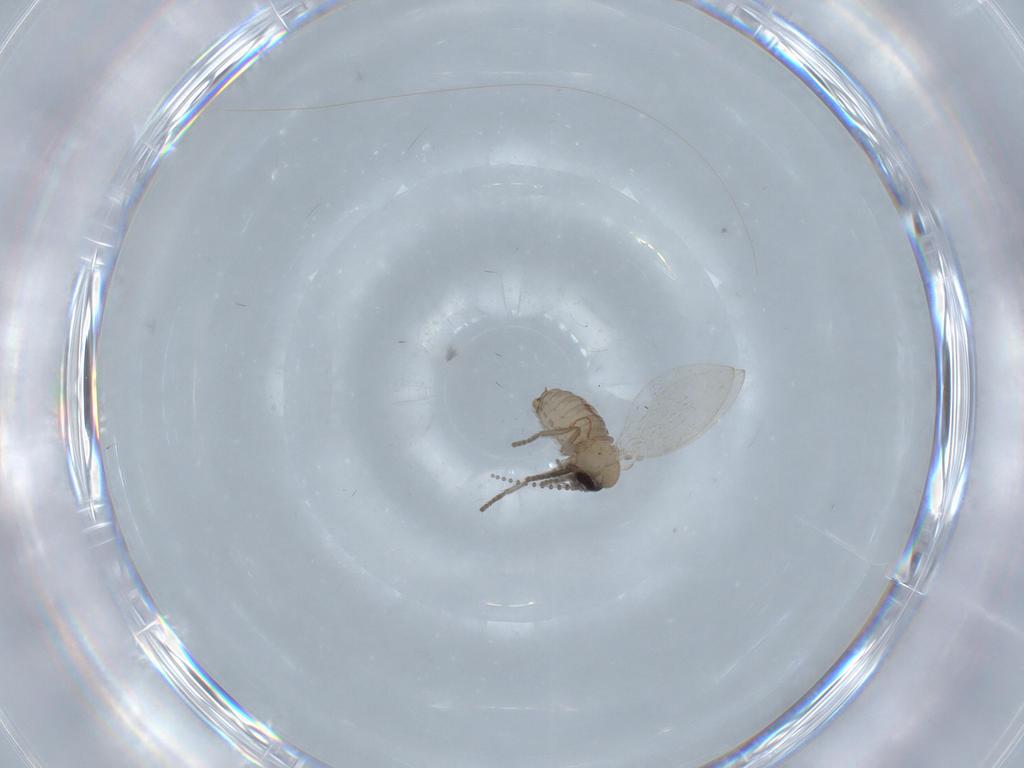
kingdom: Animalia
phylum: Arthropoda
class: Insecta
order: Diptera
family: Psychodidae
